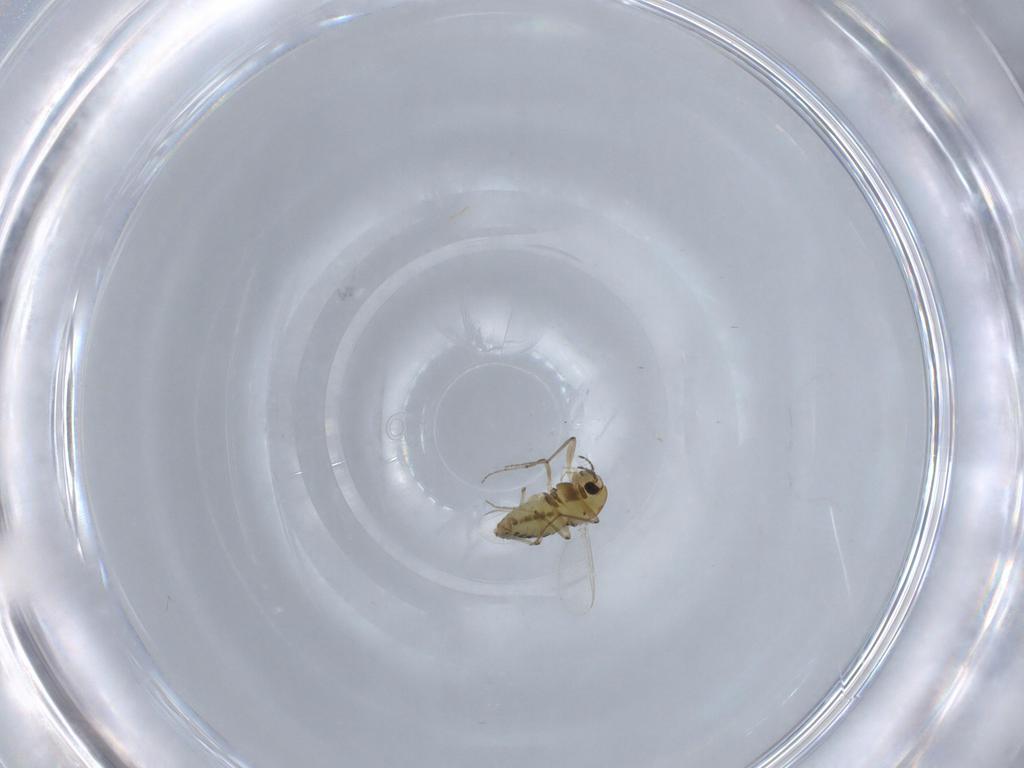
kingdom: Animalia
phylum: Arthropoda
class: Insecta
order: Diptera
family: Chironomidae
